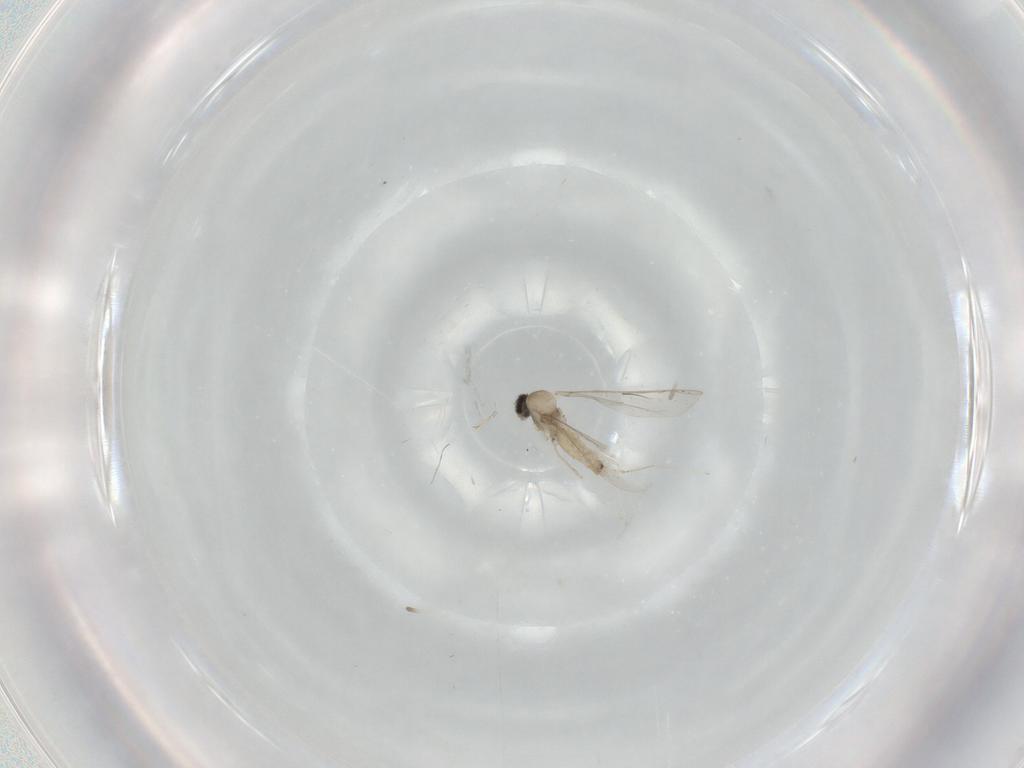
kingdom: Animalia
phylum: Arthropoda
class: Insecta
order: Diptera
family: Cecidomyiidae
